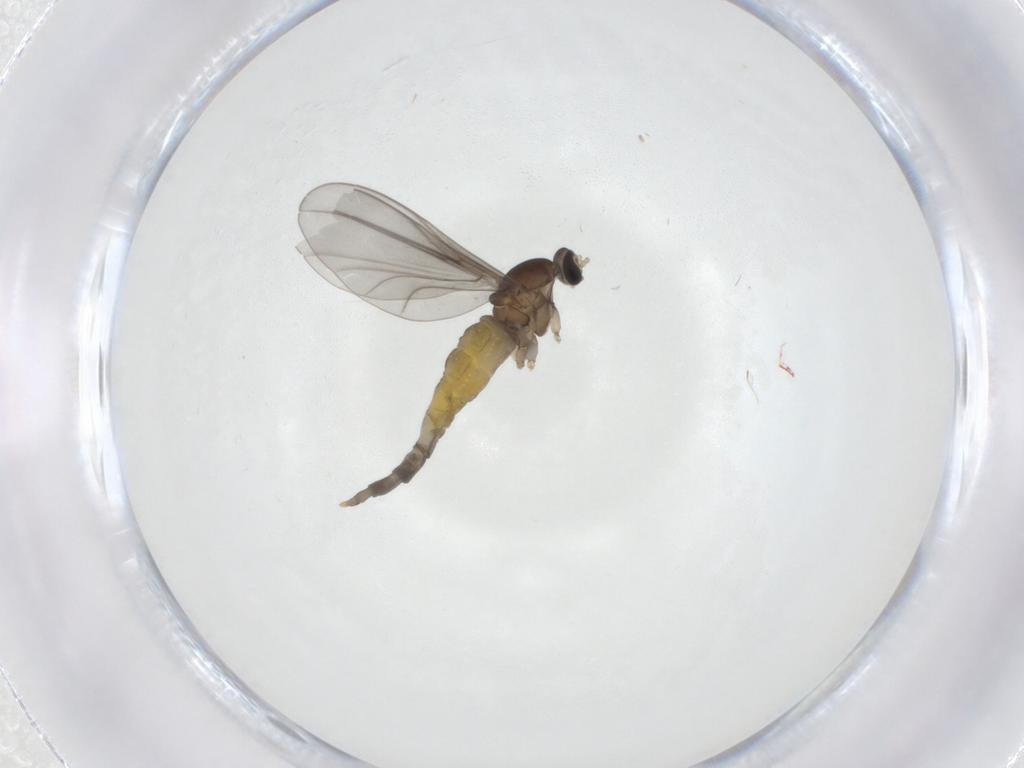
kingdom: Animalia
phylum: Arthropoda
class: Insecta
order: Diptera
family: Cecidomyiidae
